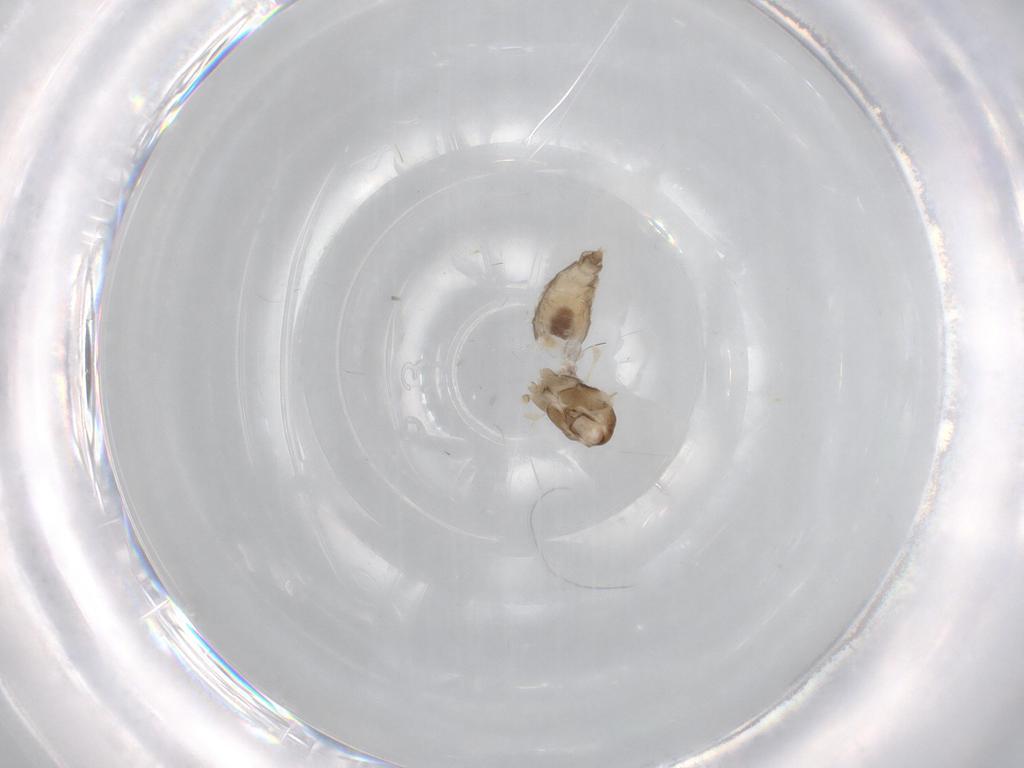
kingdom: Animalia
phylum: Arthropoda
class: Insecta
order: Diptera
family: Cecidomyiidae
